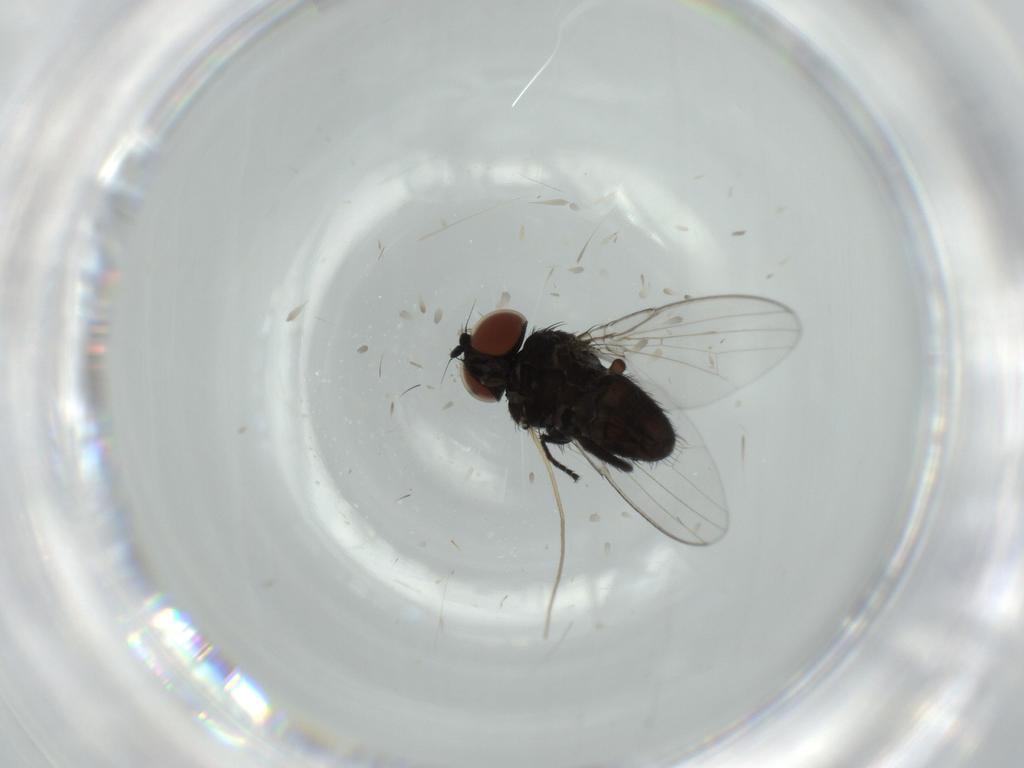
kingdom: Animalia
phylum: Arthropoda
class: Insecta
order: Diptera
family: Milichiidae
